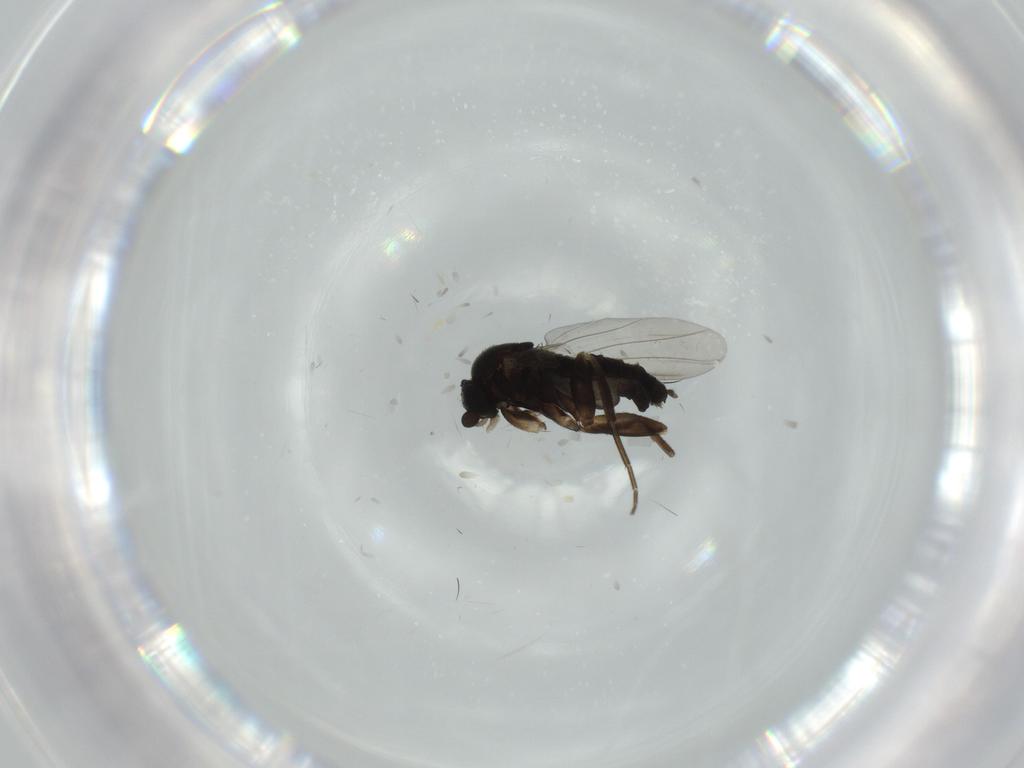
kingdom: Animalia
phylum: Arthropoda
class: Insecta
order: Diptera
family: Phoridae
